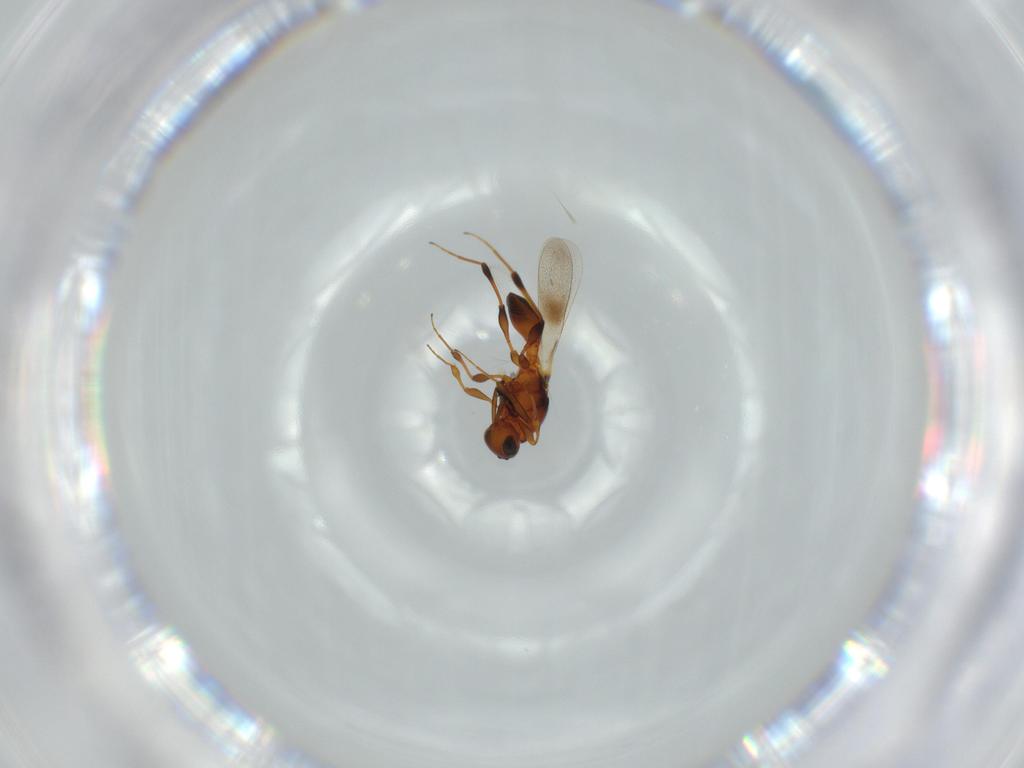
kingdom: Animalia
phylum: Arthropoda
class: Insecta
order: Hymenoptera
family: Platygastridae
